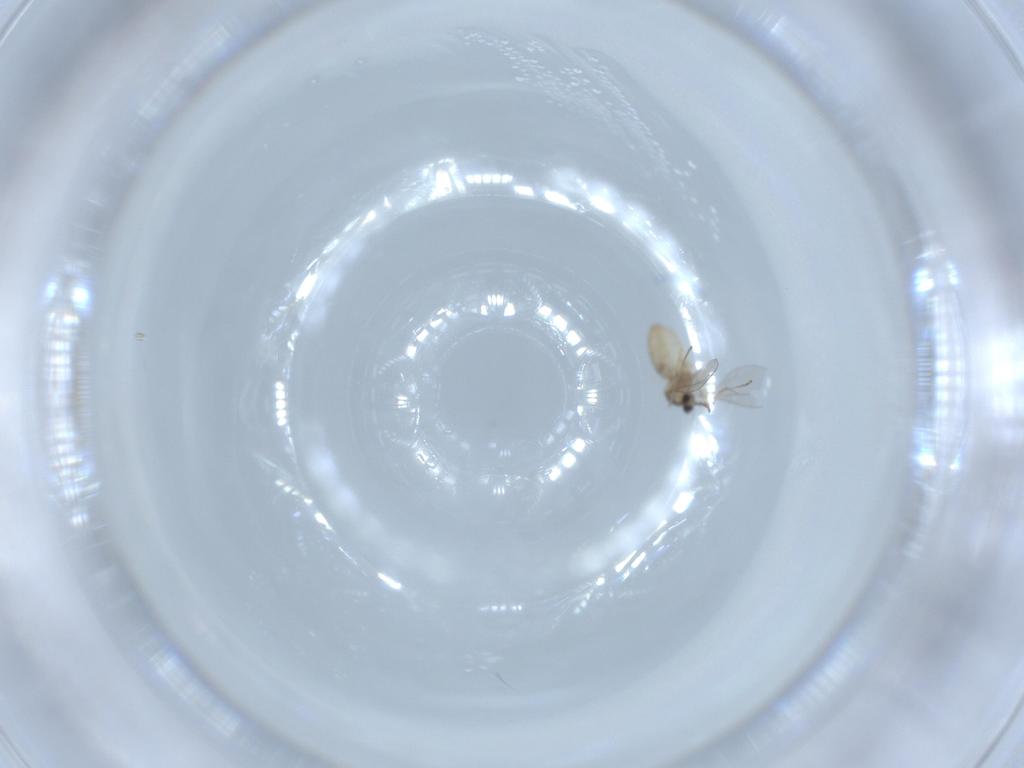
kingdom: Animalia
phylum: Arthropoda
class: Insecta
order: Diptera
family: Cecidomyiidae
